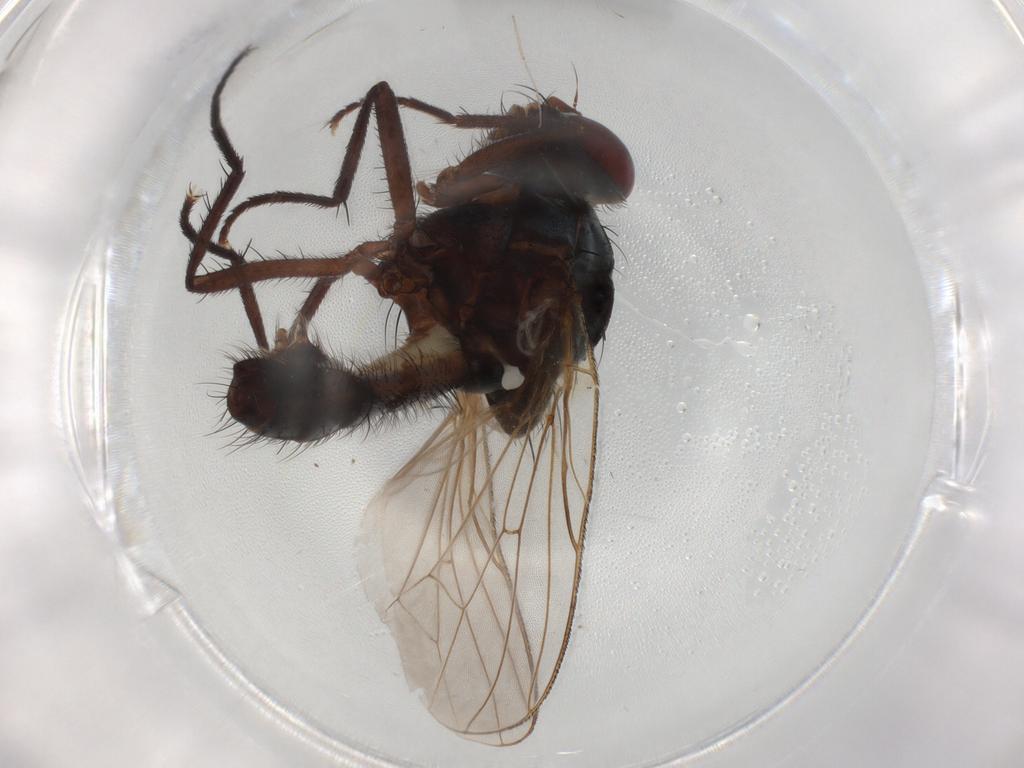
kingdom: Animalia
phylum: Arthropoda
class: Insecta
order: Diptera
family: Anthomyiidae
